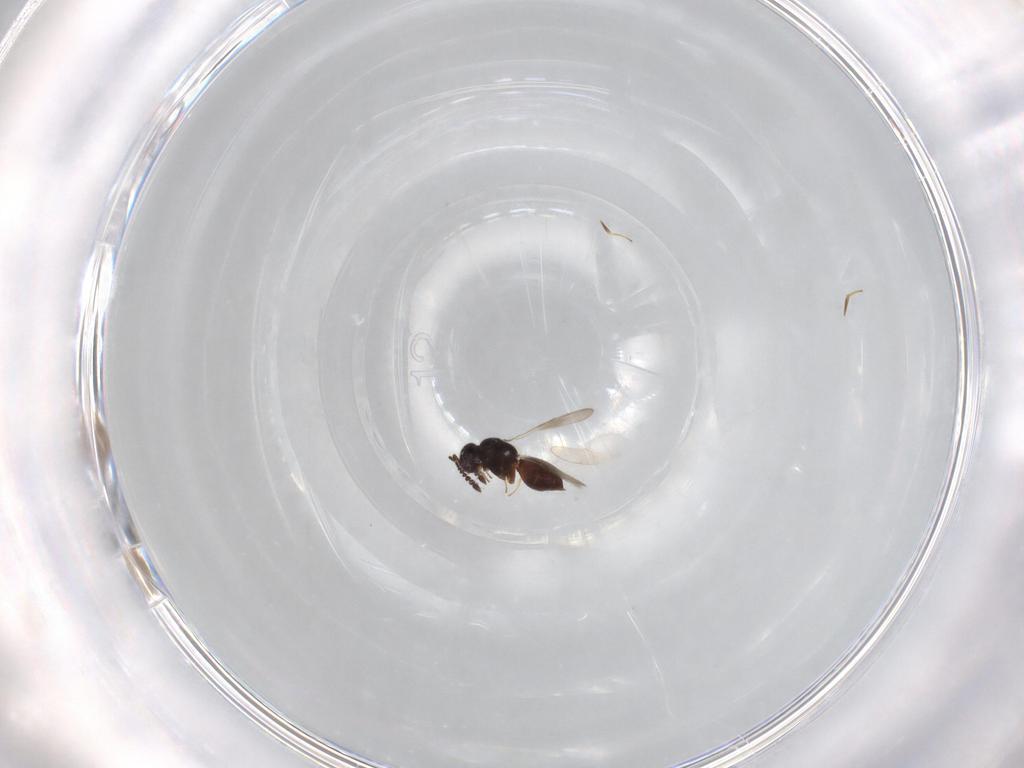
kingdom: Animalia
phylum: Arthropoda
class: Insecta
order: Hymenoptera
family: Ceraphronidae
